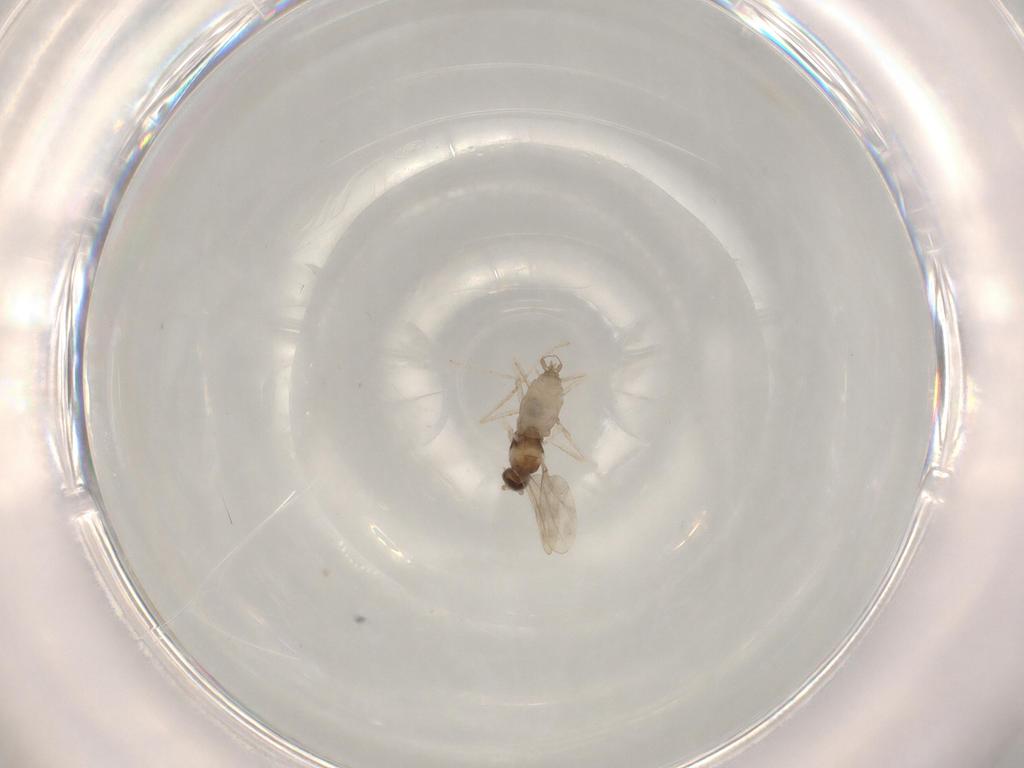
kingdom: Animalia
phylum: Arthropoda
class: Insecta
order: Diptera
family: Cecidomyiidae
